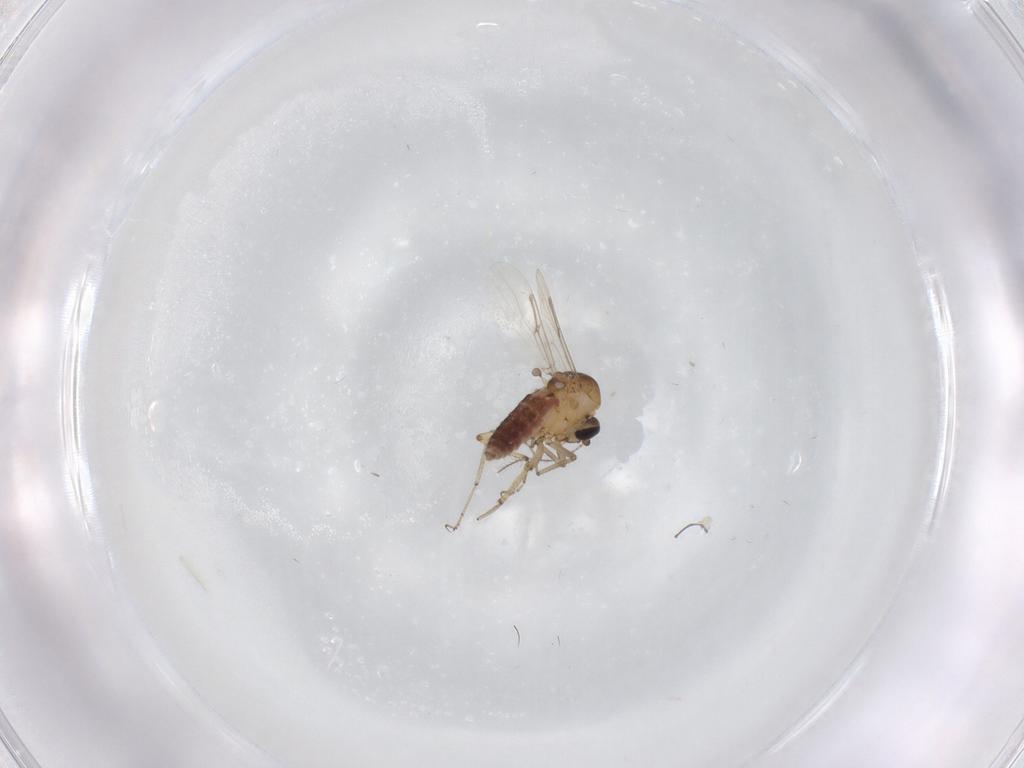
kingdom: Animalia
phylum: Arthropoda
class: Insecta
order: Diptera
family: Ceratopogonidae
